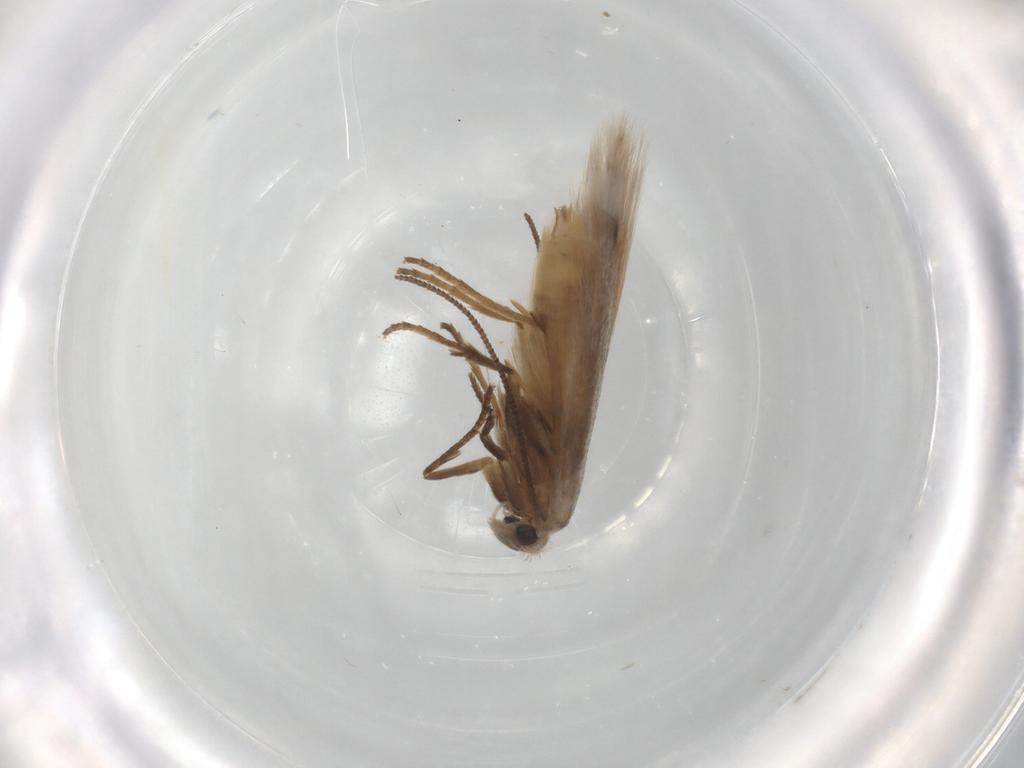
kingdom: Animalia
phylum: Arthropoda
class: Insecta
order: Lepidoptera
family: Bucculatricidae
